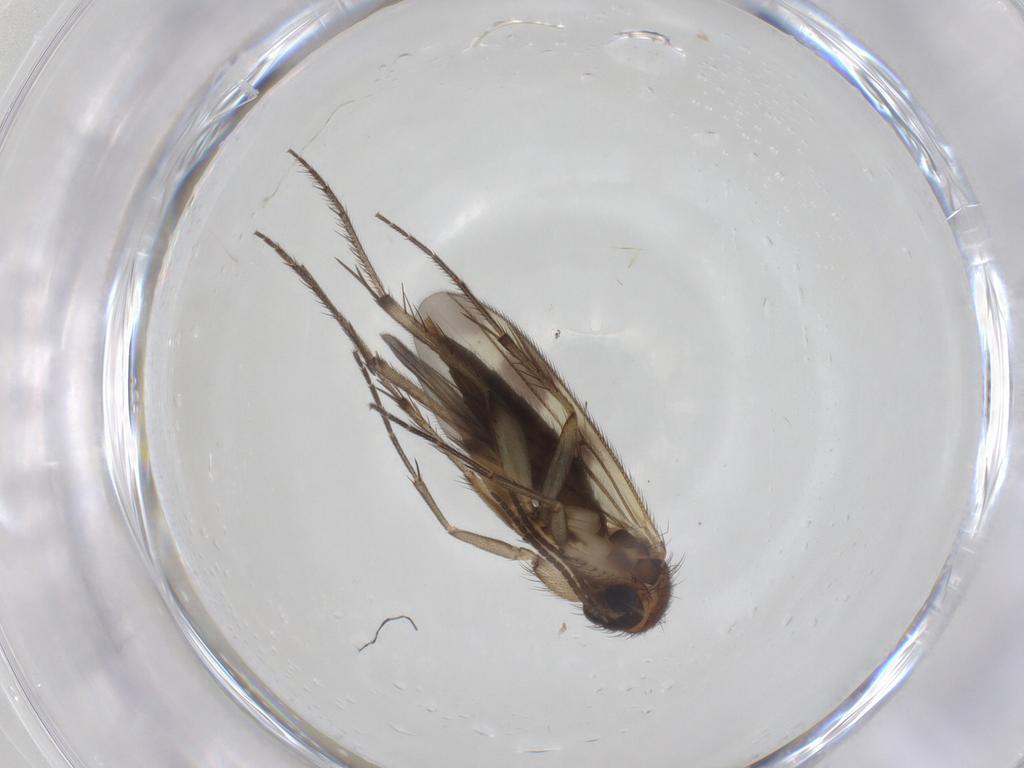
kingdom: Animalia
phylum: Arthropoda
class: Insecta
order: Diptera
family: Mycetophilidae
